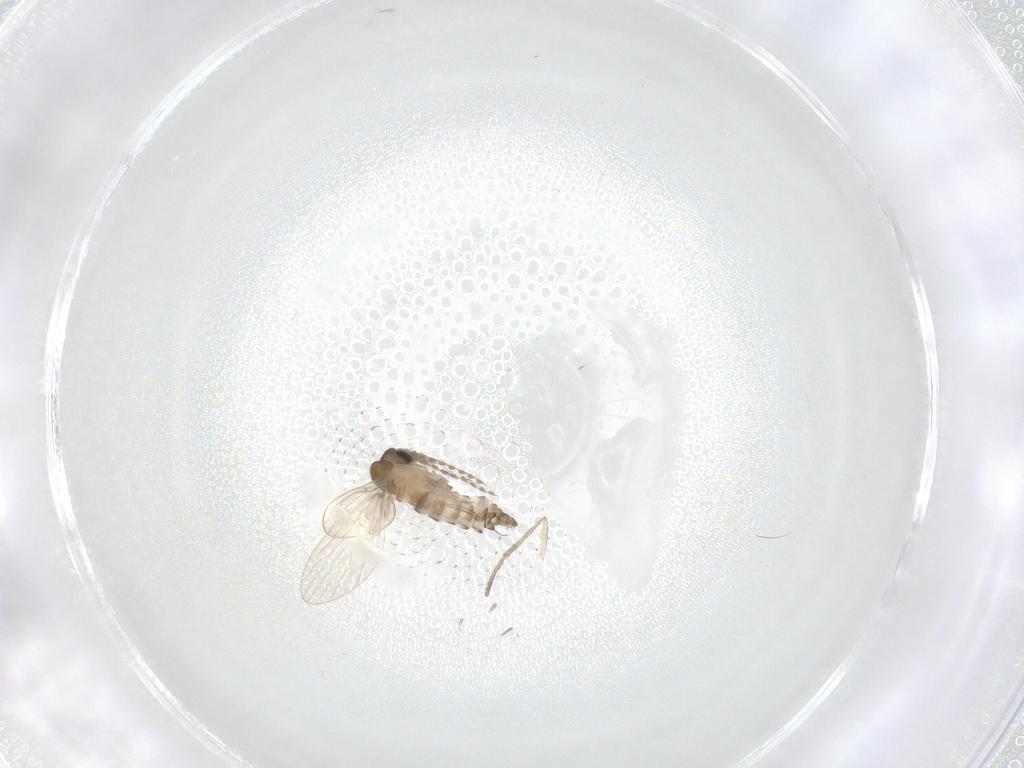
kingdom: Animalia
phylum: Arthropoda
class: Insecta
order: Diptera
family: Psychodidae
